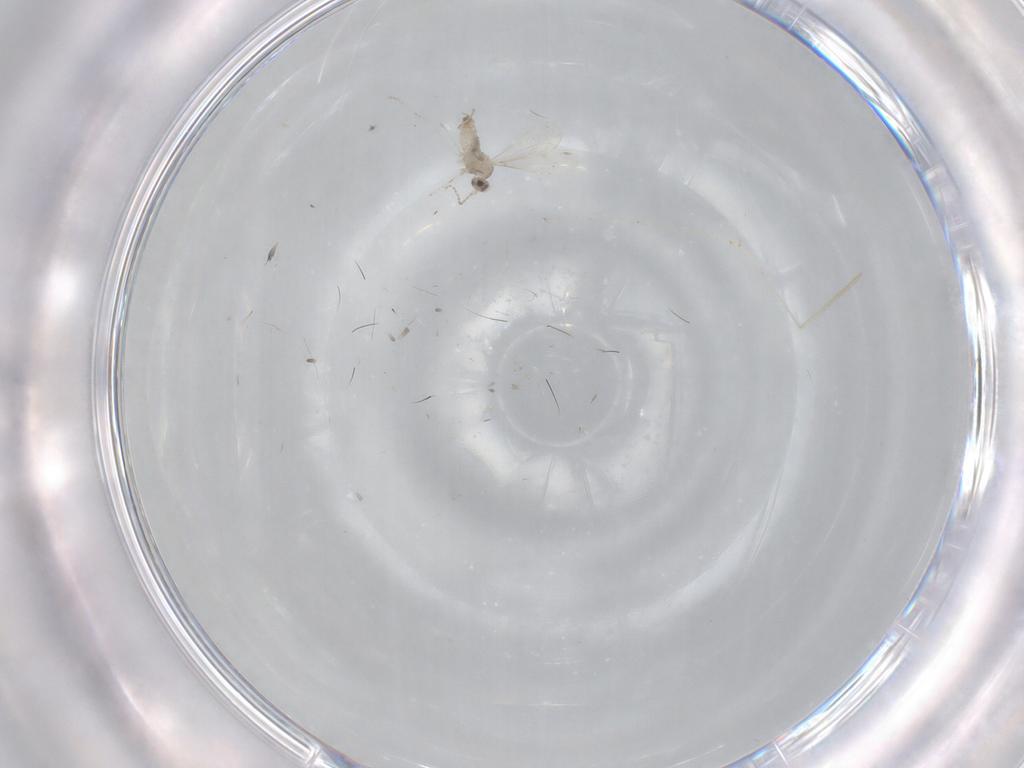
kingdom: Animalia
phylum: Arthropoda
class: Insecta
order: Diptera
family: Cecidomyiidae
